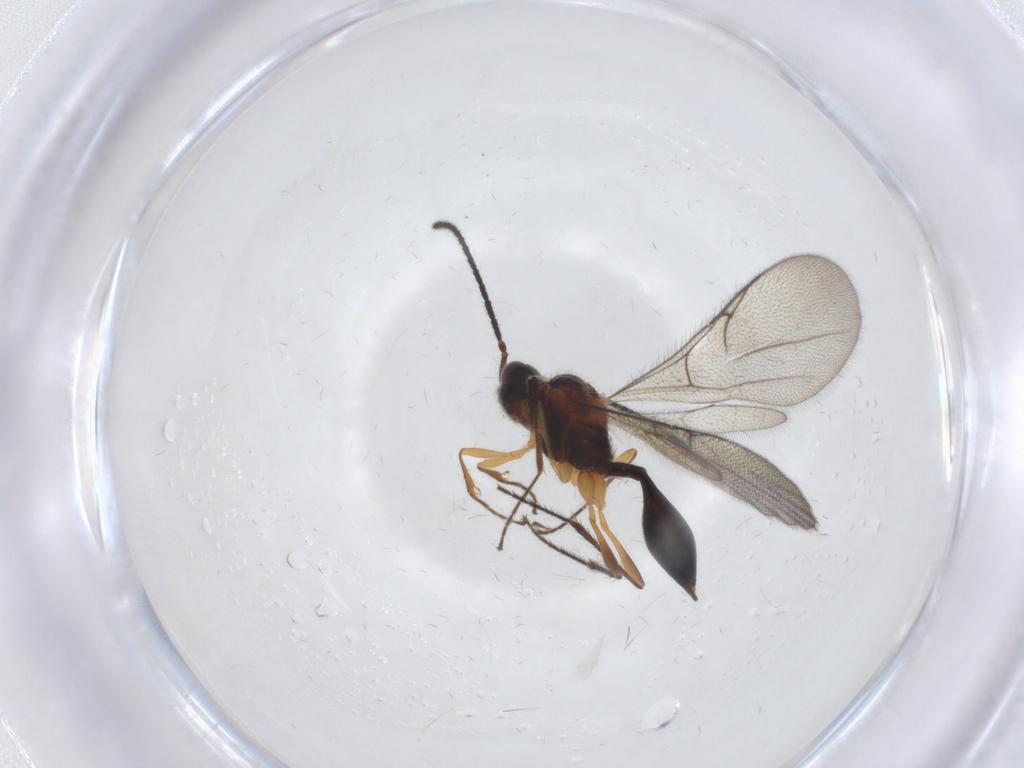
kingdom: Animalia
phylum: Arthropoda
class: Insecta
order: Hymenoptera
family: Diapriidae
